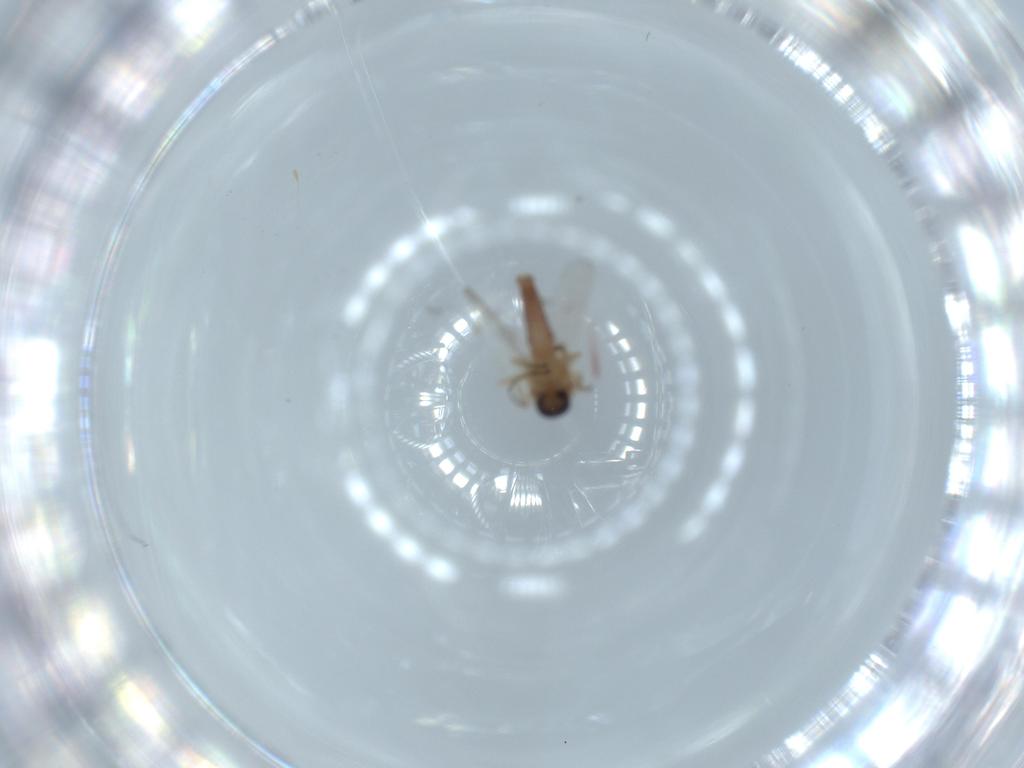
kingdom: Animalia
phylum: Arthropoda
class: Insecta
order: Diptera
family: Ceratopogonidae
